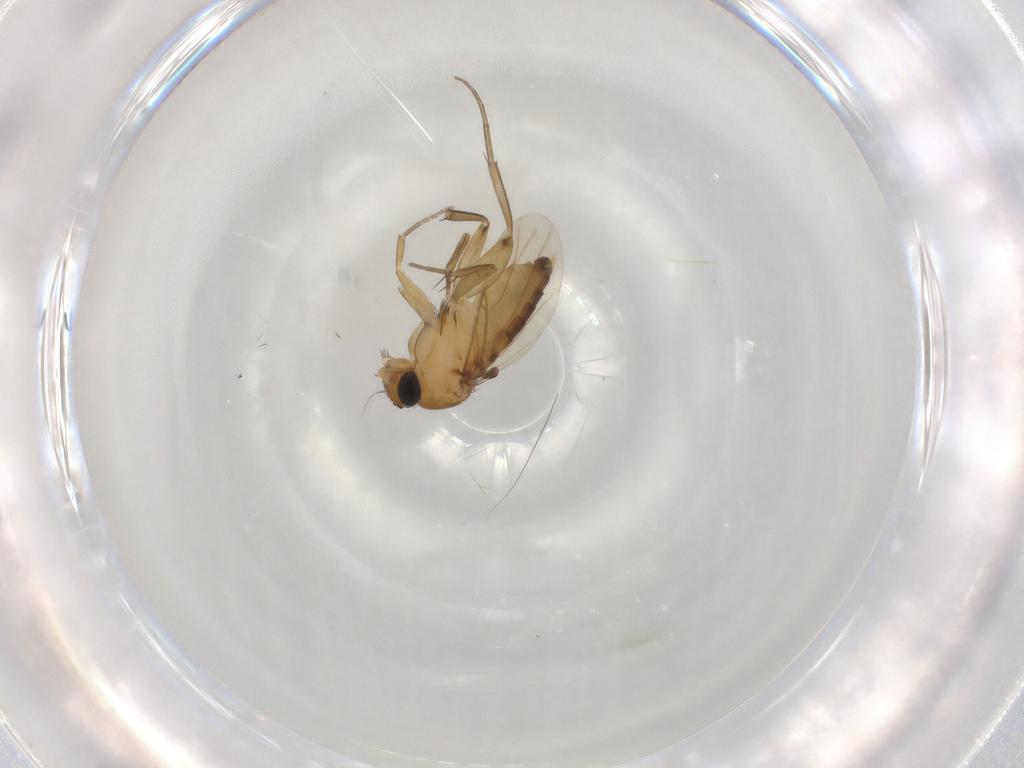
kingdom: Animalia
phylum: Arthropoda
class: Insecta
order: Diptera
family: Phoridae
